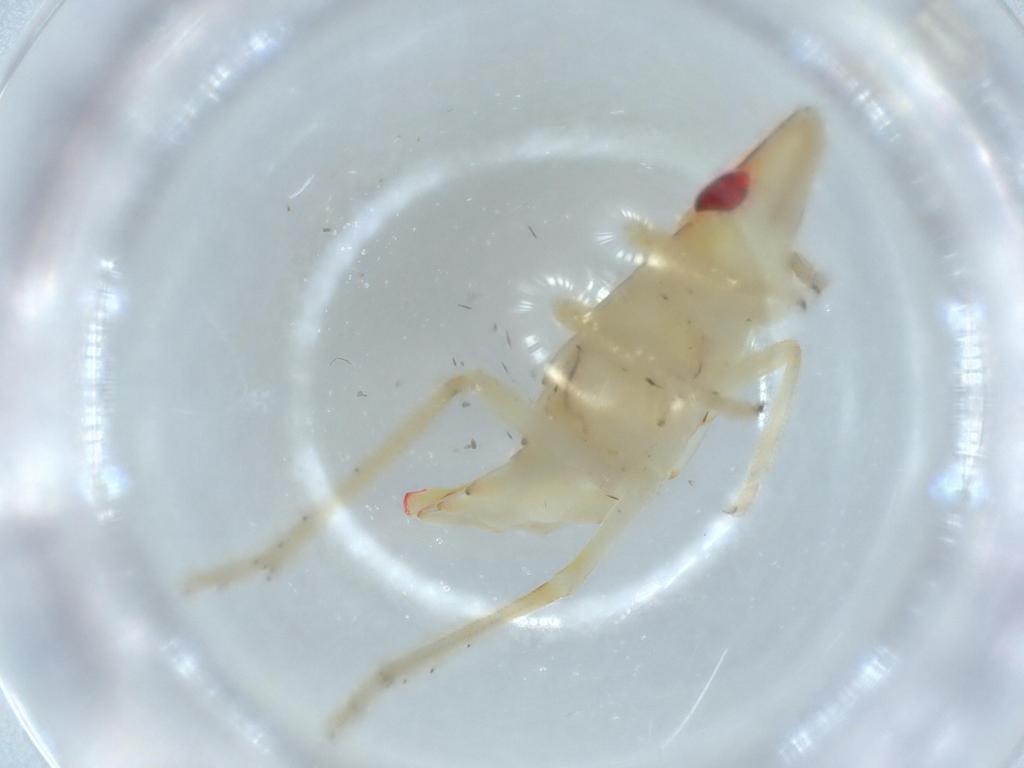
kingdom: Animalia
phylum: Arthropoda
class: Insecta
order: Hemiptera
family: Tropiduchidae
